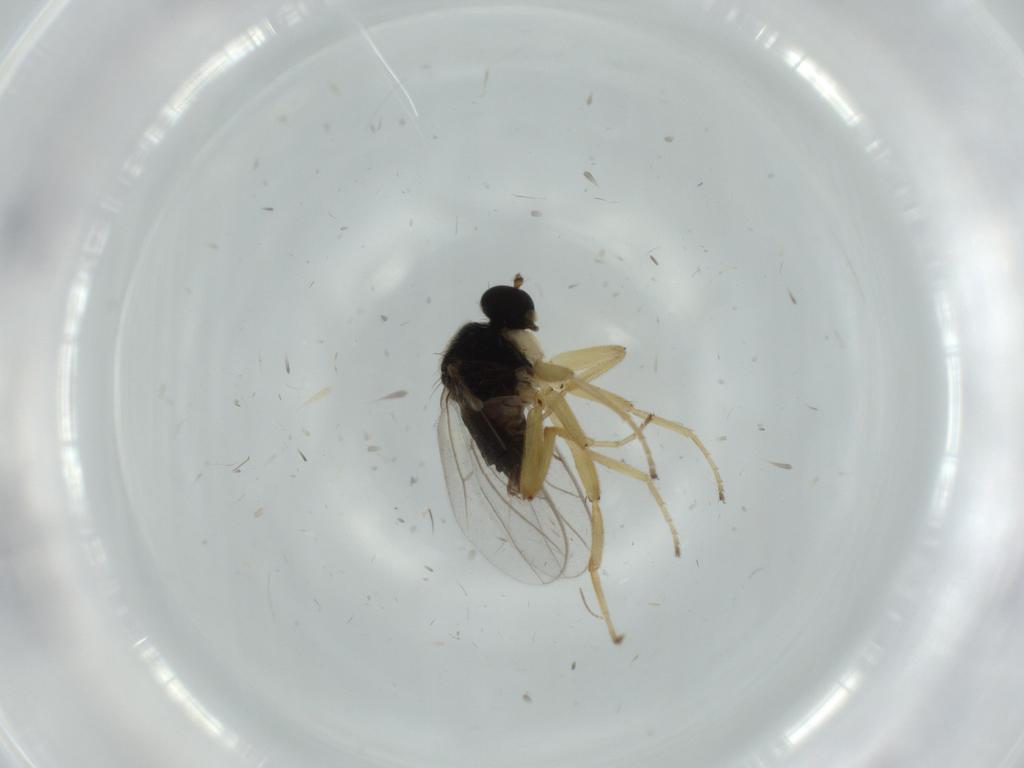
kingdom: Animalia
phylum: Arthropoda
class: Insecta
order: Diptera
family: Hybotidae
